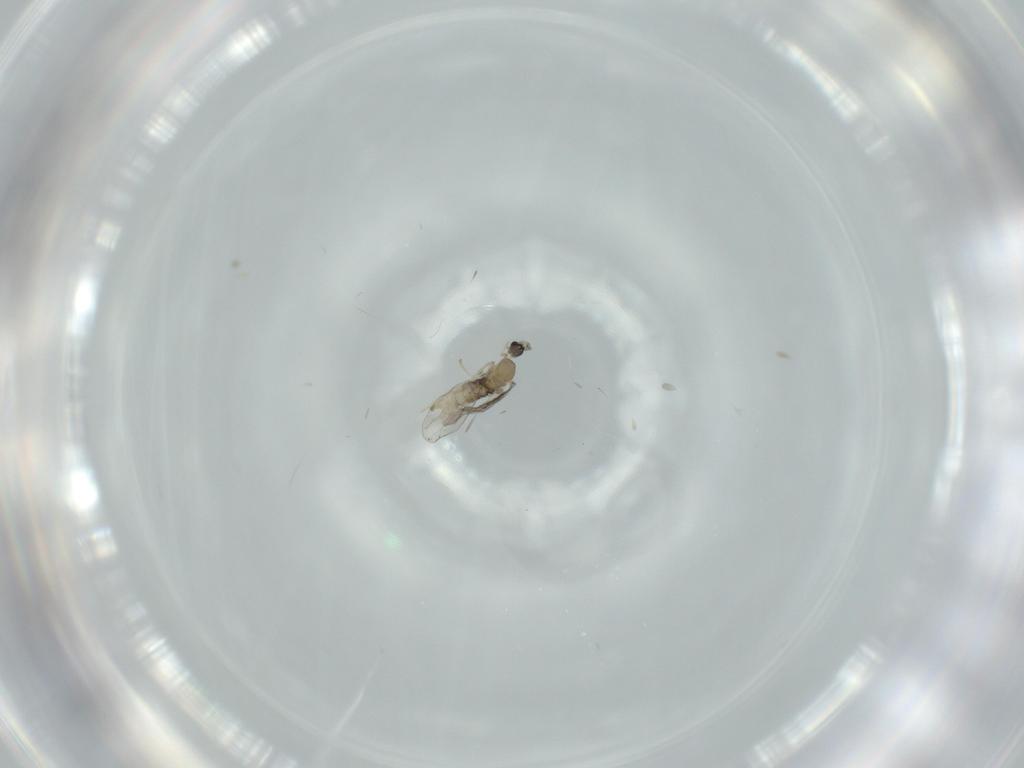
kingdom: Animalia
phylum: Arthropoda
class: Insecta
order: Diptera
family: Cecidomyiidae
